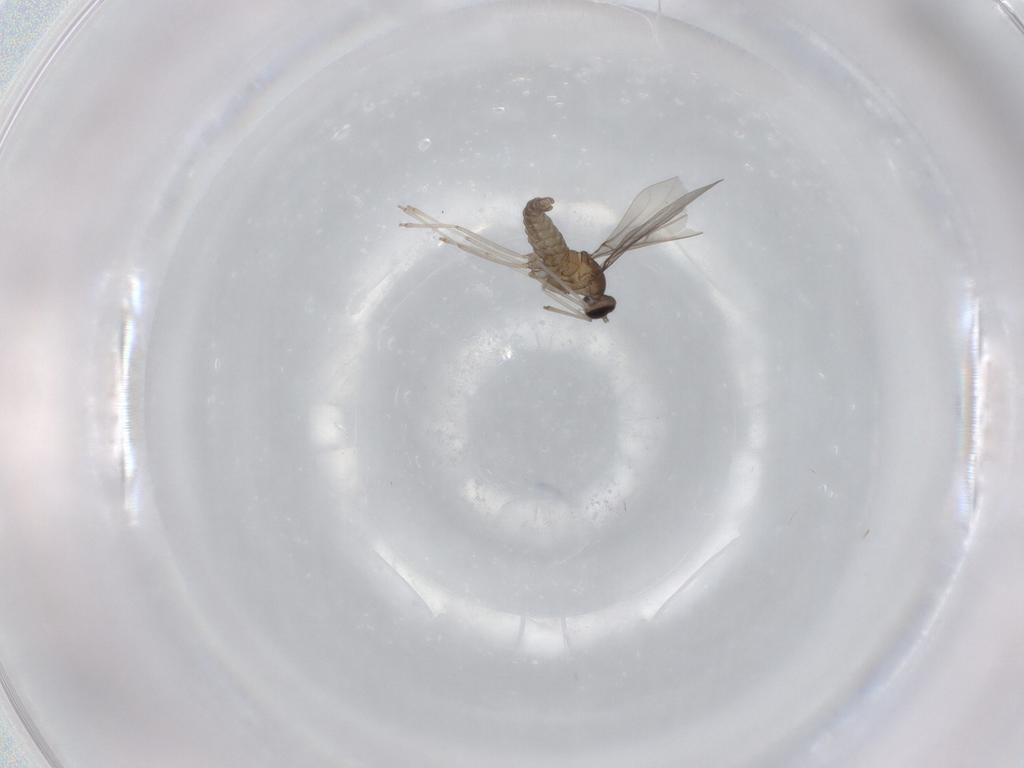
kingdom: Animalia
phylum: Arthropoda
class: Insecta
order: Diptera
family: Cecidomyiidae
